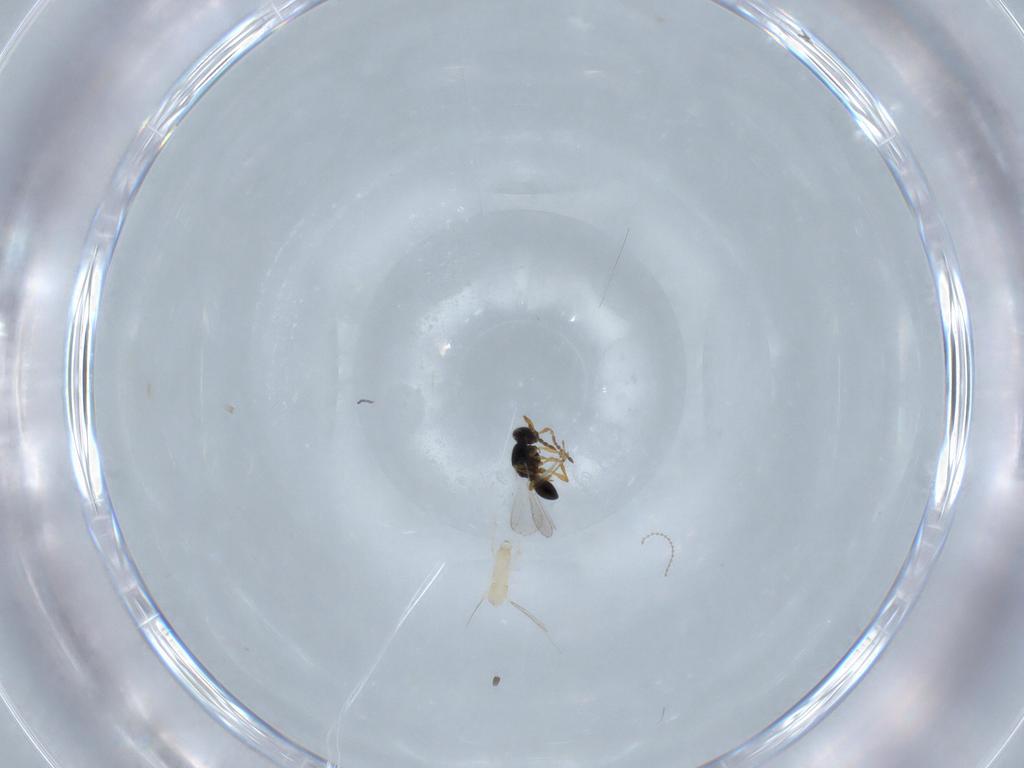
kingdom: Animalia
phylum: Arthropoda
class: Insecta
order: Hymenoptera
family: Platygastridae
